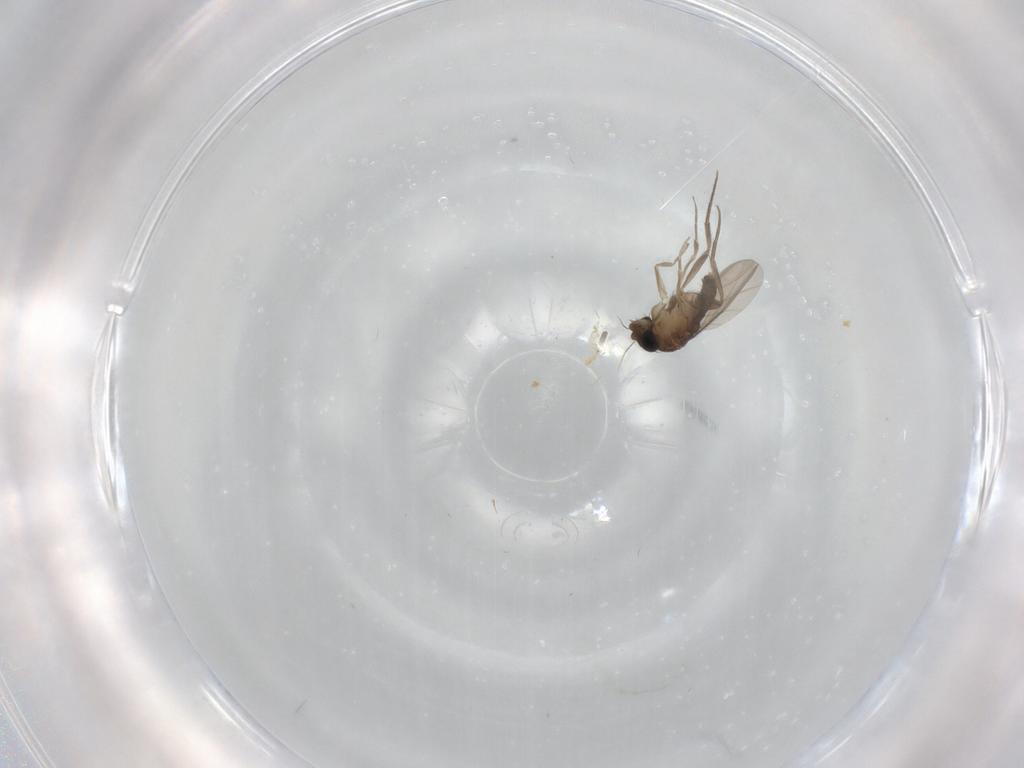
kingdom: Animalia
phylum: Arthropoda
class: Insecta
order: Diptera
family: Phoridae
